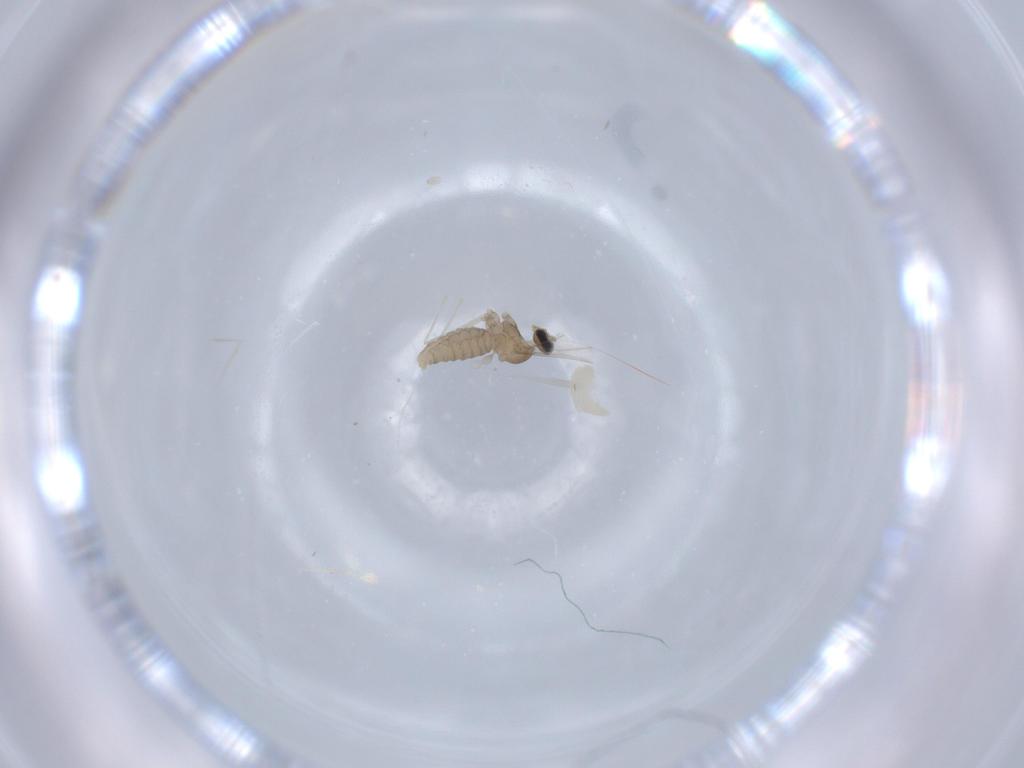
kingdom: Animalia
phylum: Arthropoda
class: Insecta
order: Diptera
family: Cecidomyiidae
